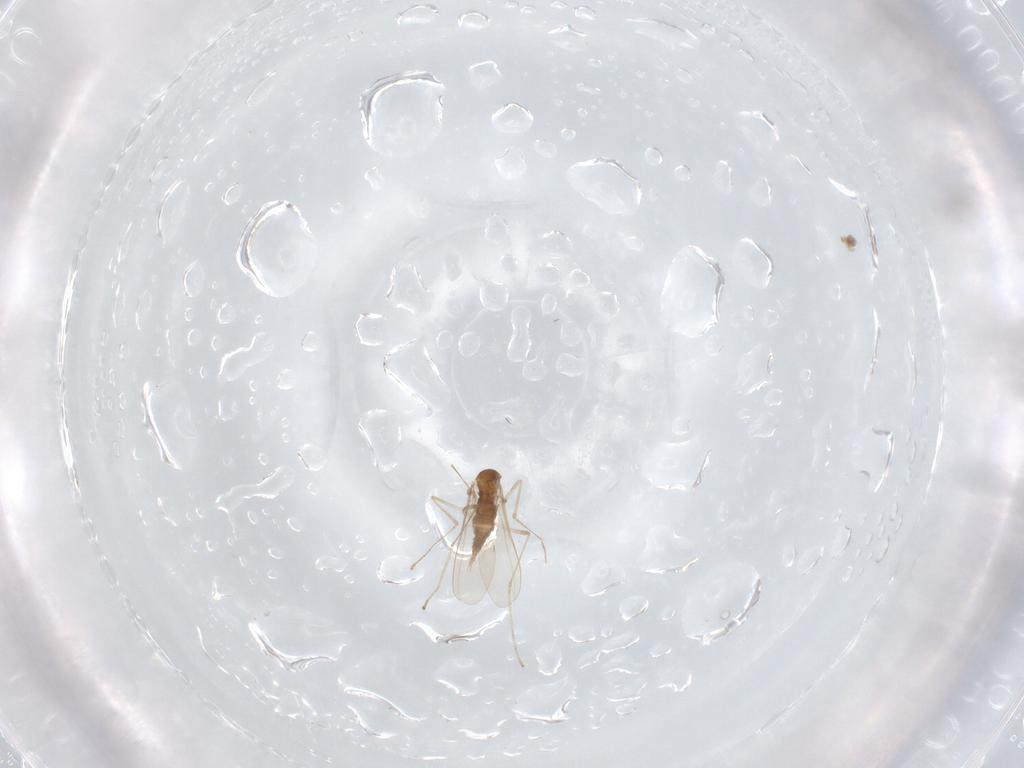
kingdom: Animalia
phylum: Arthropoda
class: Insecta
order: Diptera
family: Cecidomyiidae
